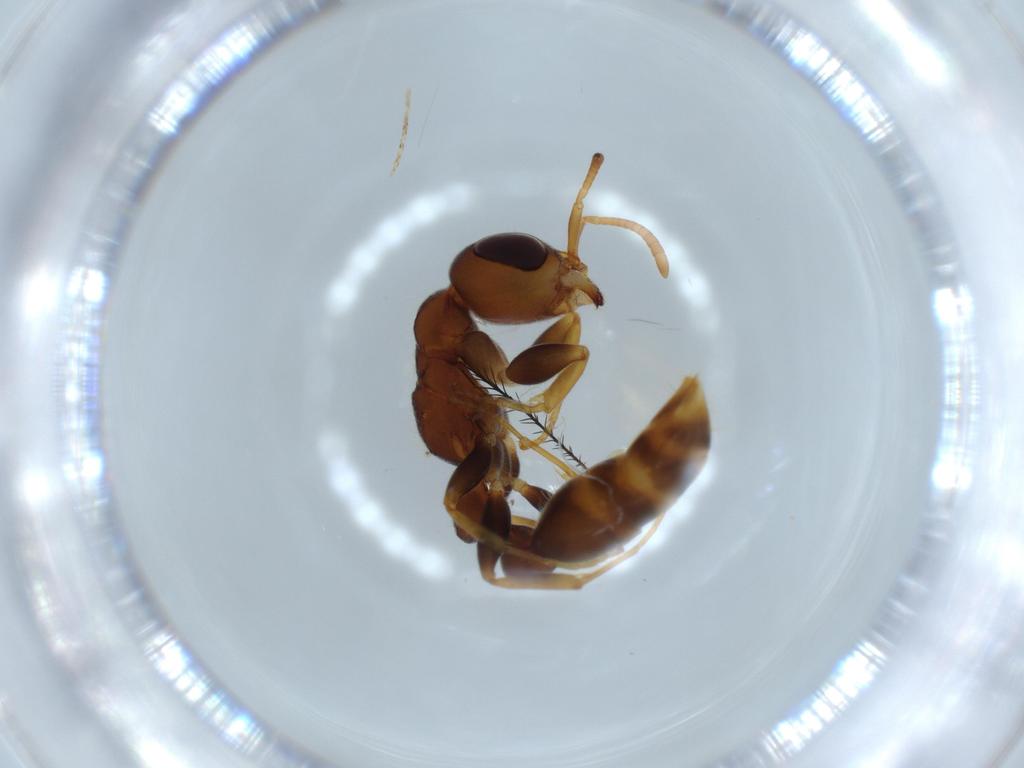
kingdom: Animalia
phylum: Arthropoda
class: Insecta
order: Hymenoptera
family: Formicidae
